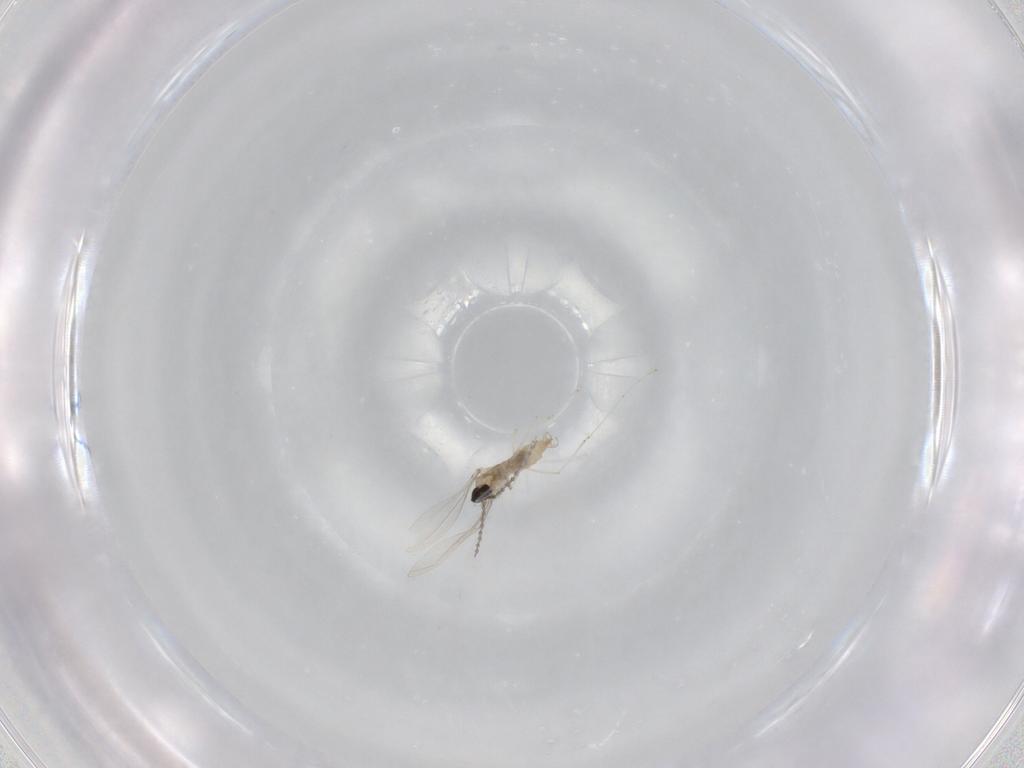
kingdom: Animalia
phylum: Arthropoda
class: Insecta
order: Diptera
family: Cecidomyiidae
